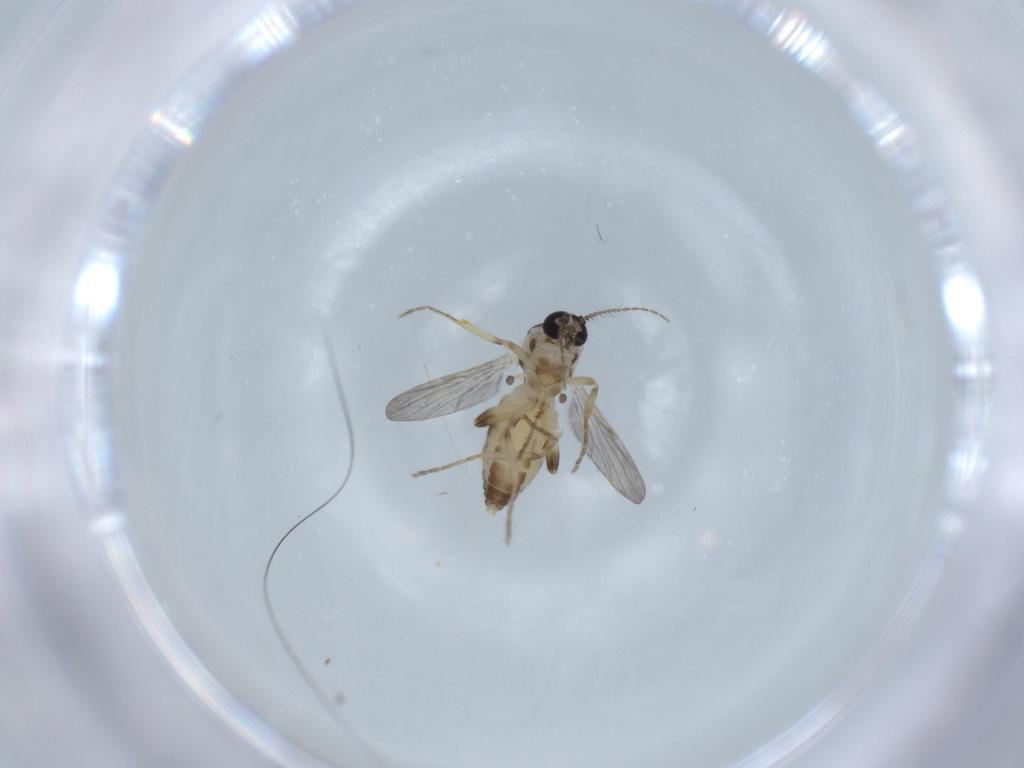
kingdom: Animalia
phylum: Arthropoda
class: Insecta
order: Diptera
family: Ceratopogonidae
